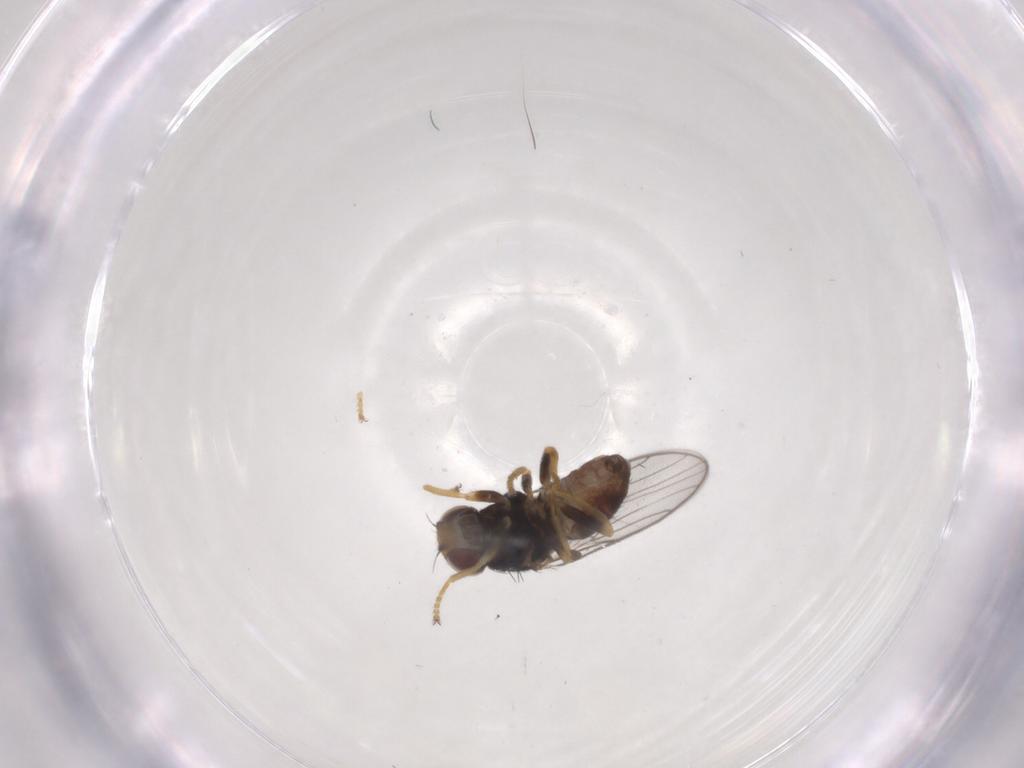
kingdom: Animalia
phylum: Arthropoda
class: Insecta
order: Diptera
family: Chloropidae
